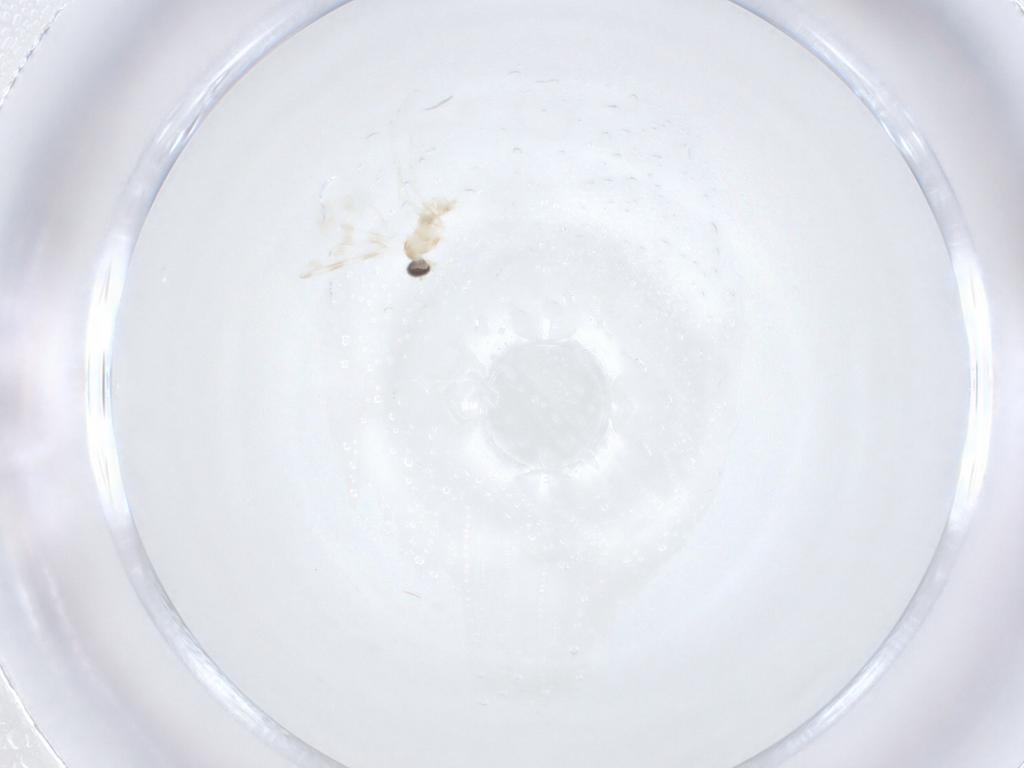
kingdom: Animalia
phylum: Arthropoda
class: Insecta
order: Diptera
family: Cecidomyiidae
